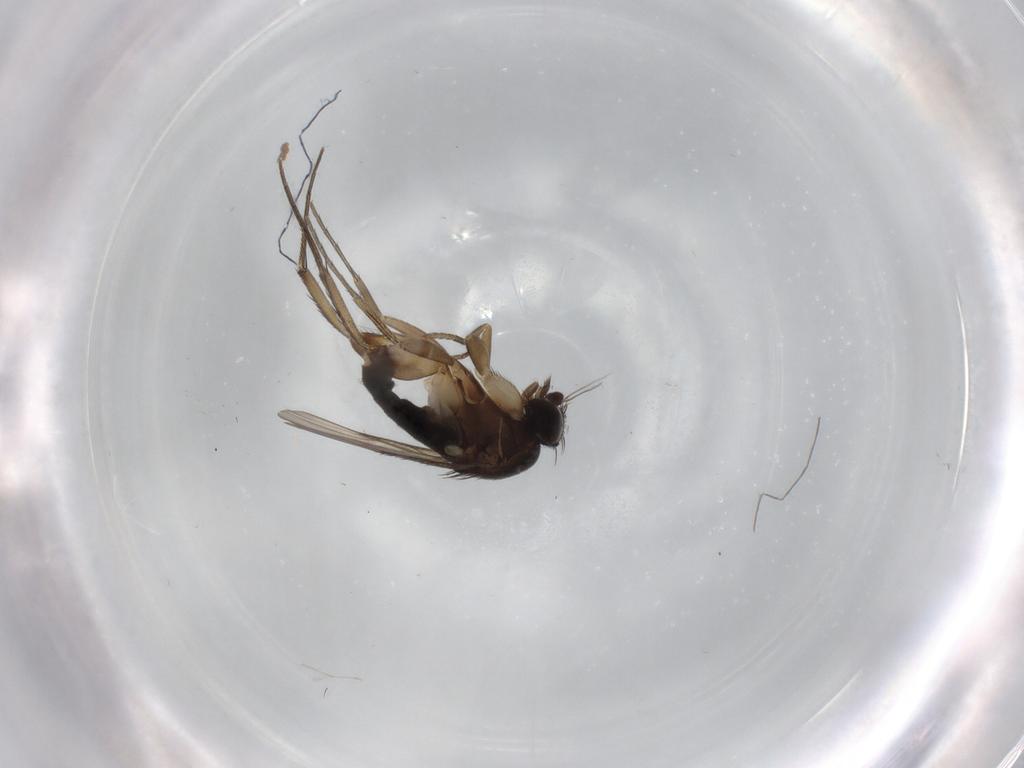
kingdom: Animalia
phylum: Arthropoda
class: Insecta
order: Diptera
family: Phoridae
